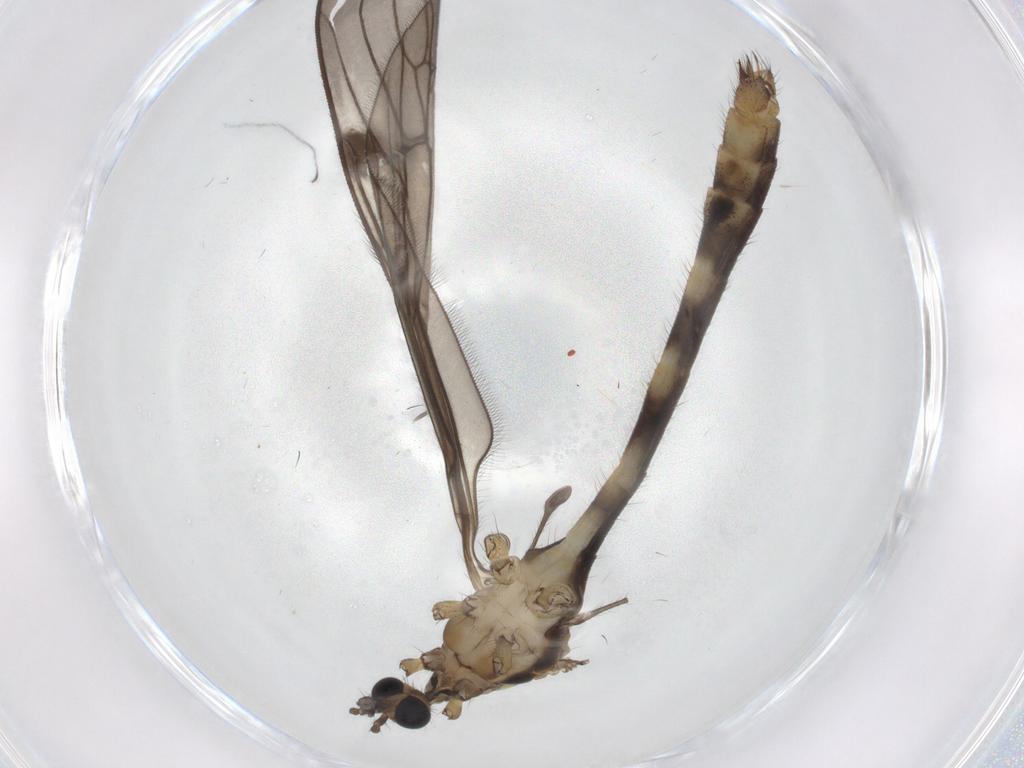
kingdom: Animalia
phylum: Arthropoda
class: Insecta
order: Diptera
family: Limoniidae
